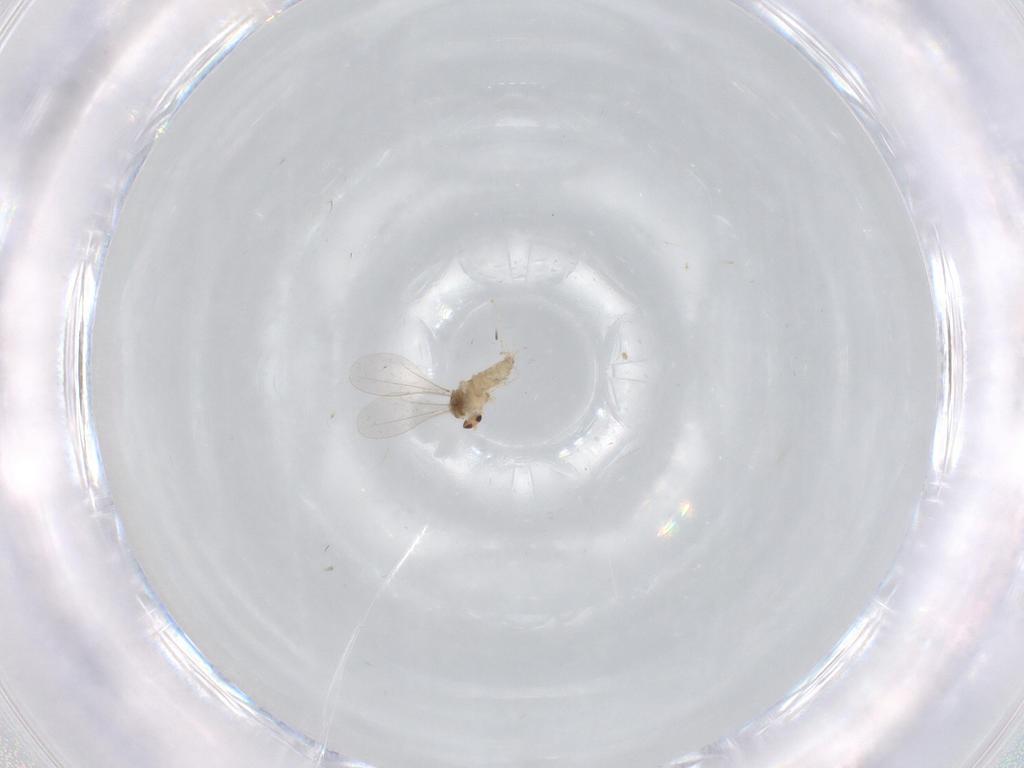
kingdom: Animalia
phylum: Arthropoda
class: Insecta
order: Diptera
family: Cecidomyiidae
